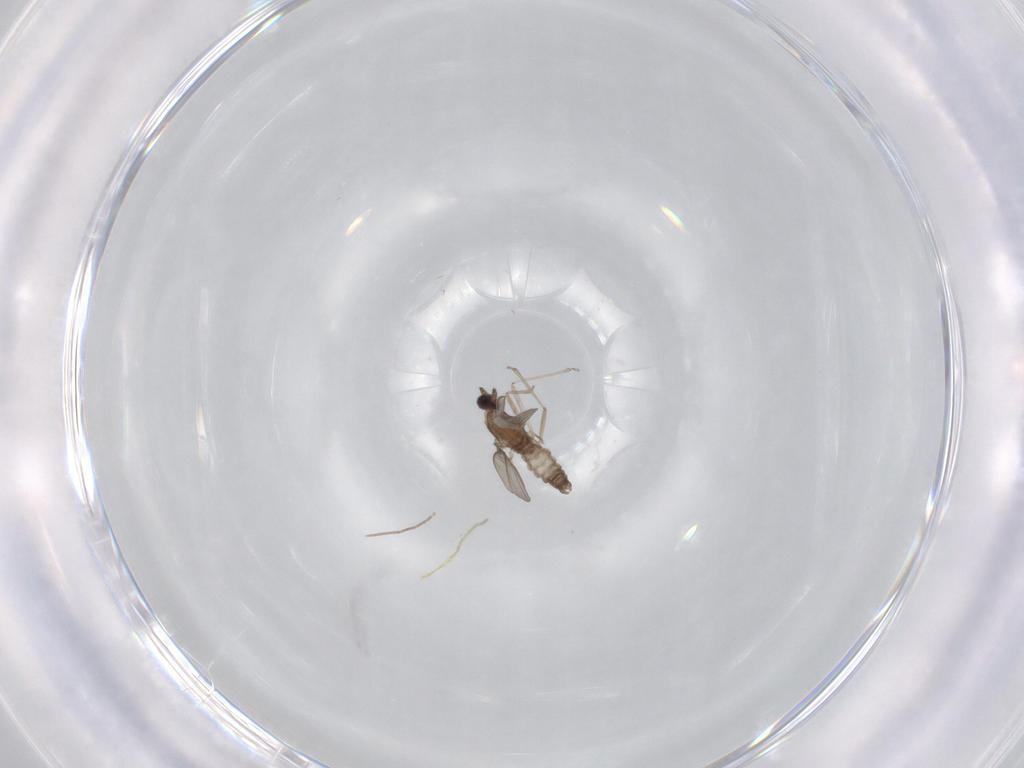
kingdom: Animalia
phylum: Arthropoda
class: Insecta
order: Diptera
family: Chironomidae
